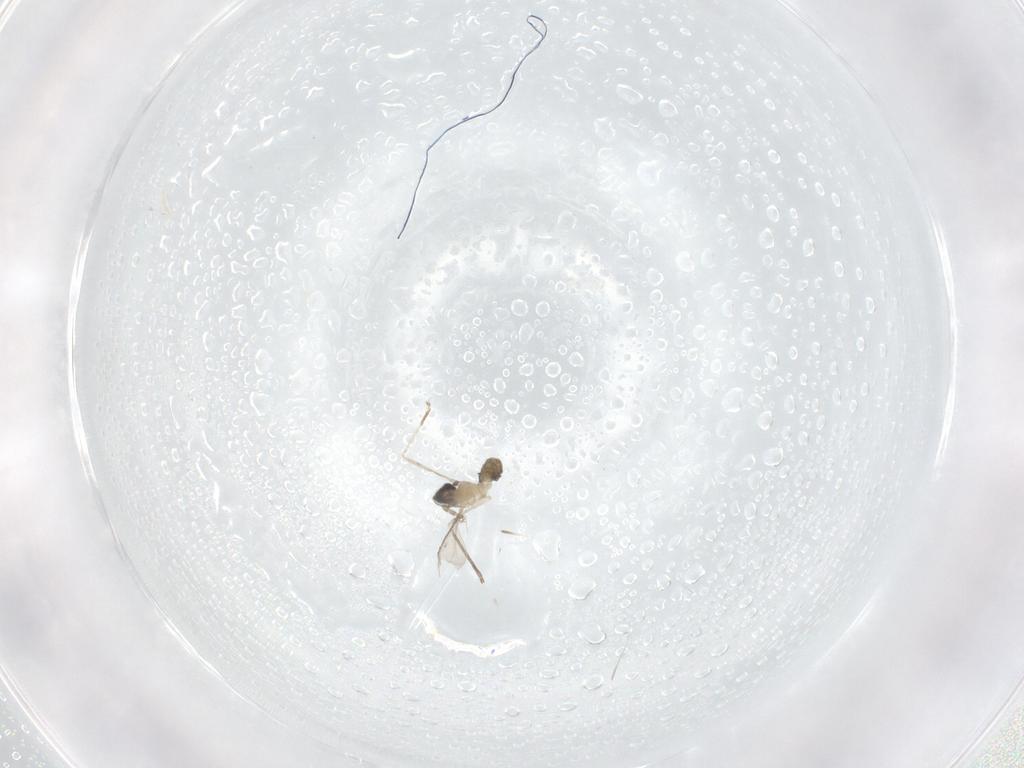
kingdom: Animalia
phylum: Arthropoda
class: Insecta
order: Diptera
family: Cecidomyiidae
